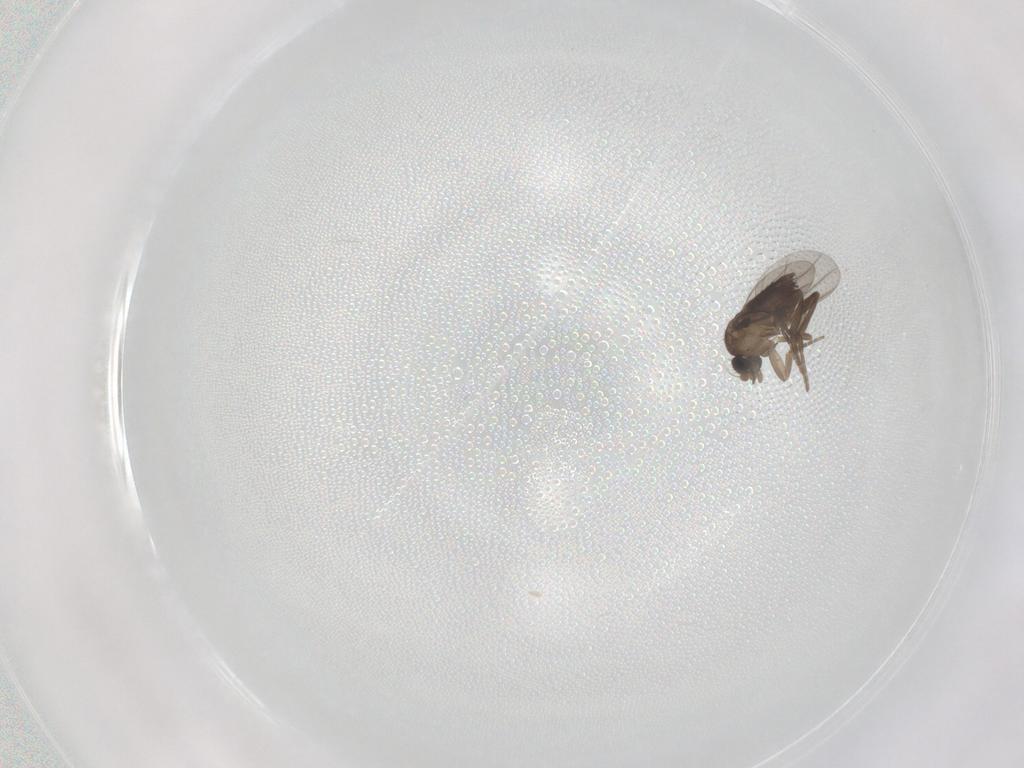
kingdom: Animalia
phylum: Arthropoda
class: Insecta
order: Diptera
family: Phoridae
